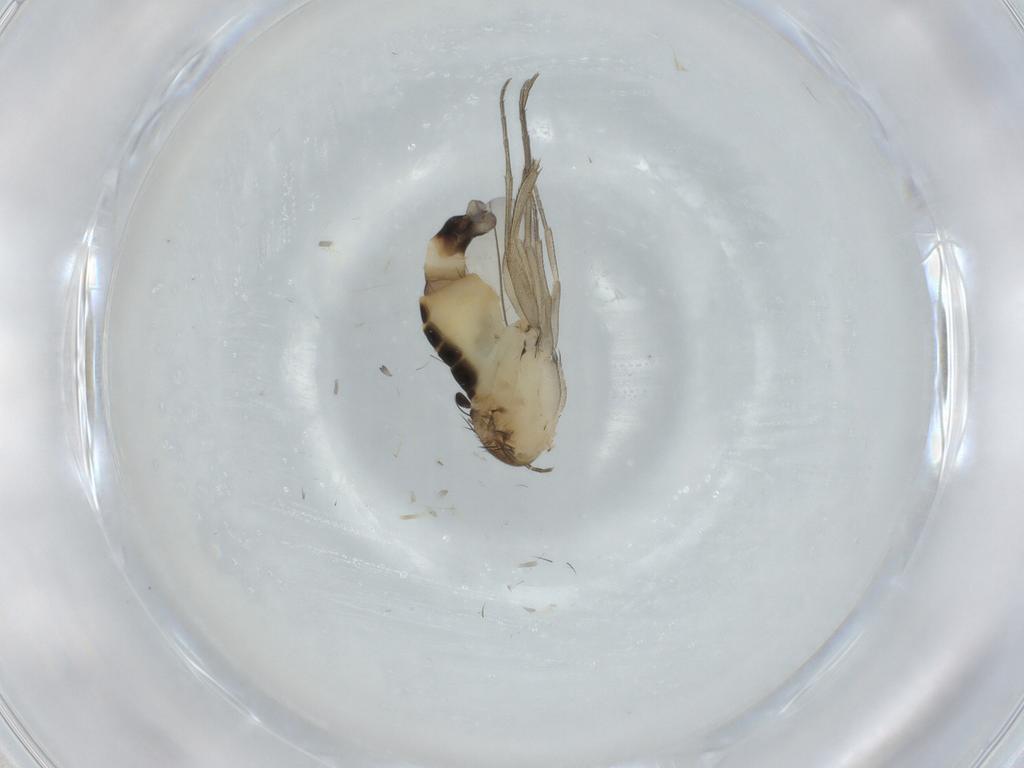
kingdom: Animalia
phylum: Arthropoda
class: Insecta
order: Diptera
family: Phoridae
